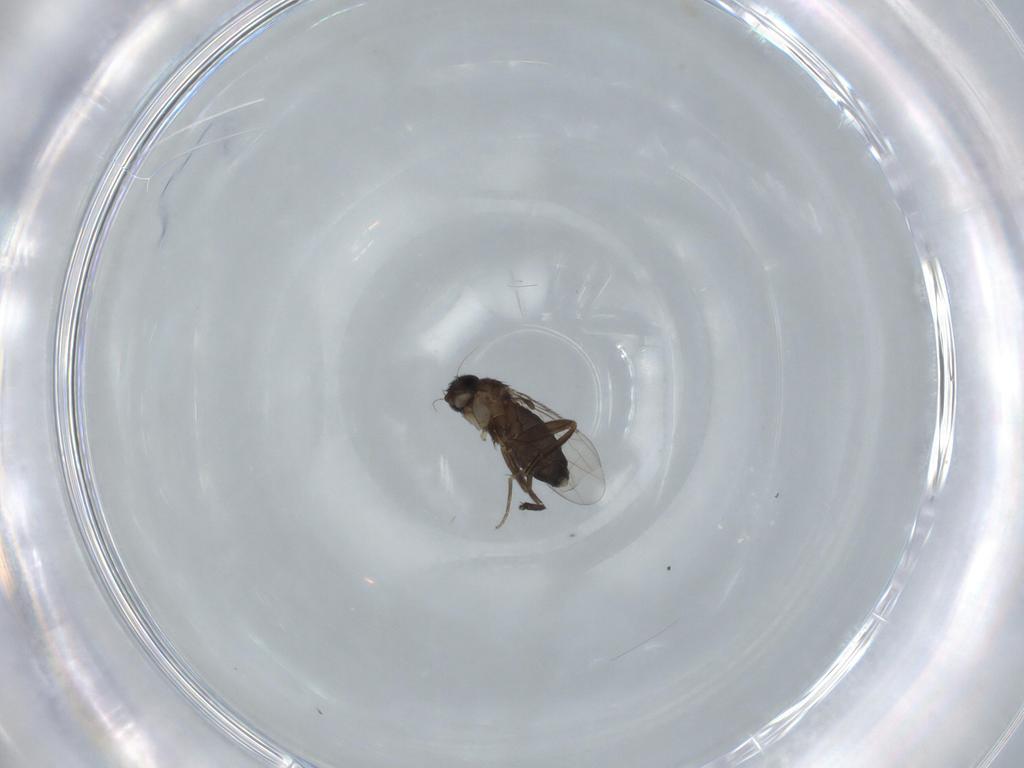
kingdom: Animalia
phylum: Arthropoda
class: Insecta
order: Diptera
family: Phoridae
